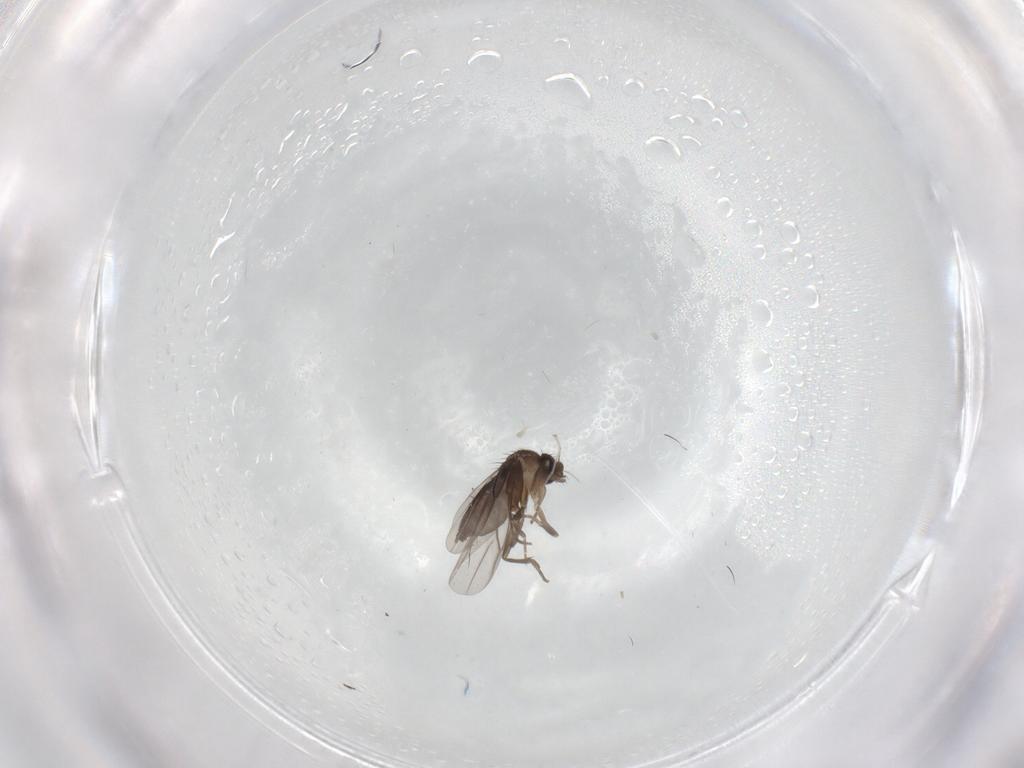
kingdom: Animalia
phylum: Arthropoda
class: Insecta
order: Diptera
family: Cecidomyiidae
